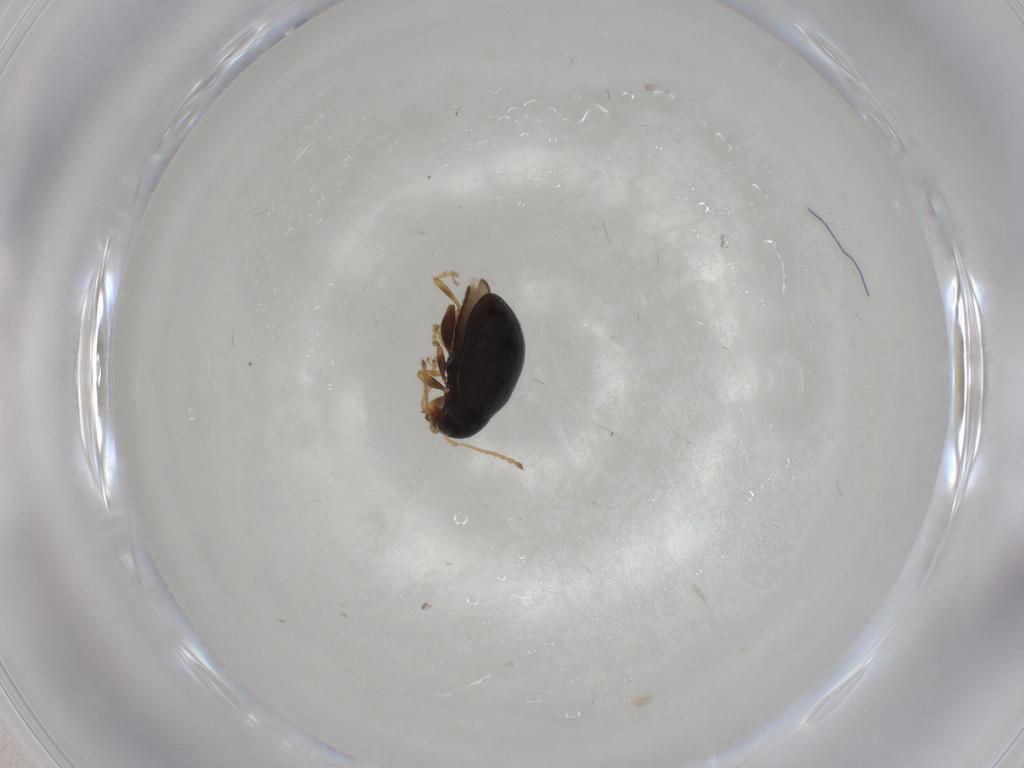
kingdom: Animalia
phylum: Arthropoda
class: Insecta
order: Coleoptera
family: Chrysomelidae
